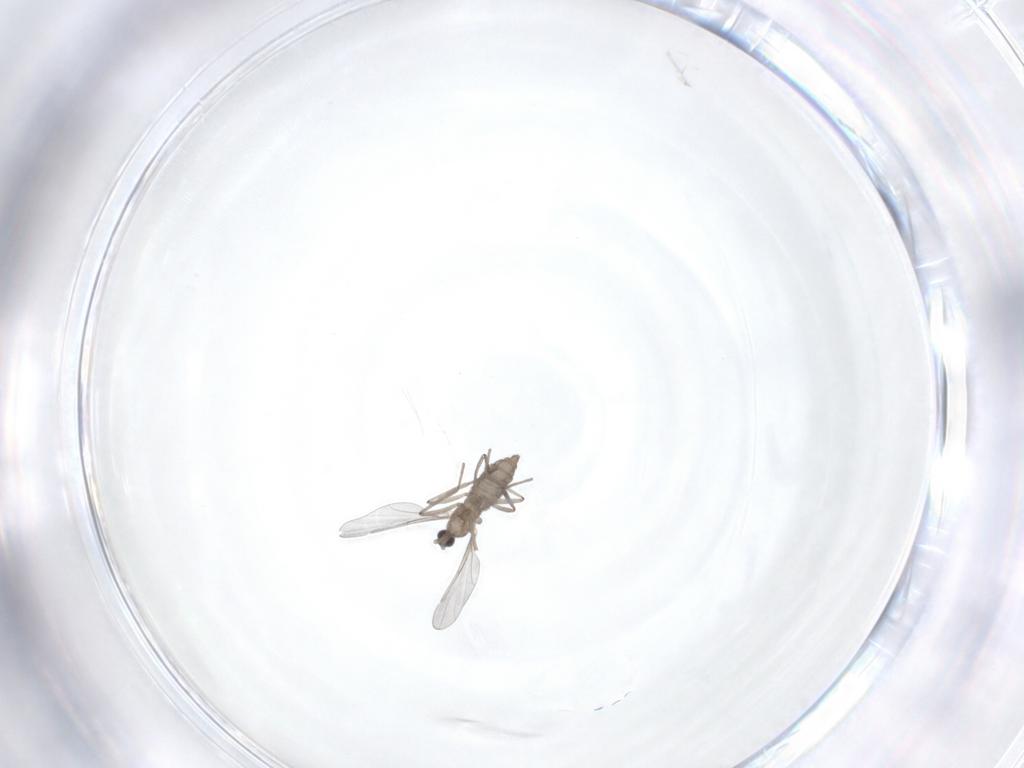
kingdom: Animalia
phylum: Arthropoda
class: Insecta
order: Diptera
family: Cecidomyiidae
